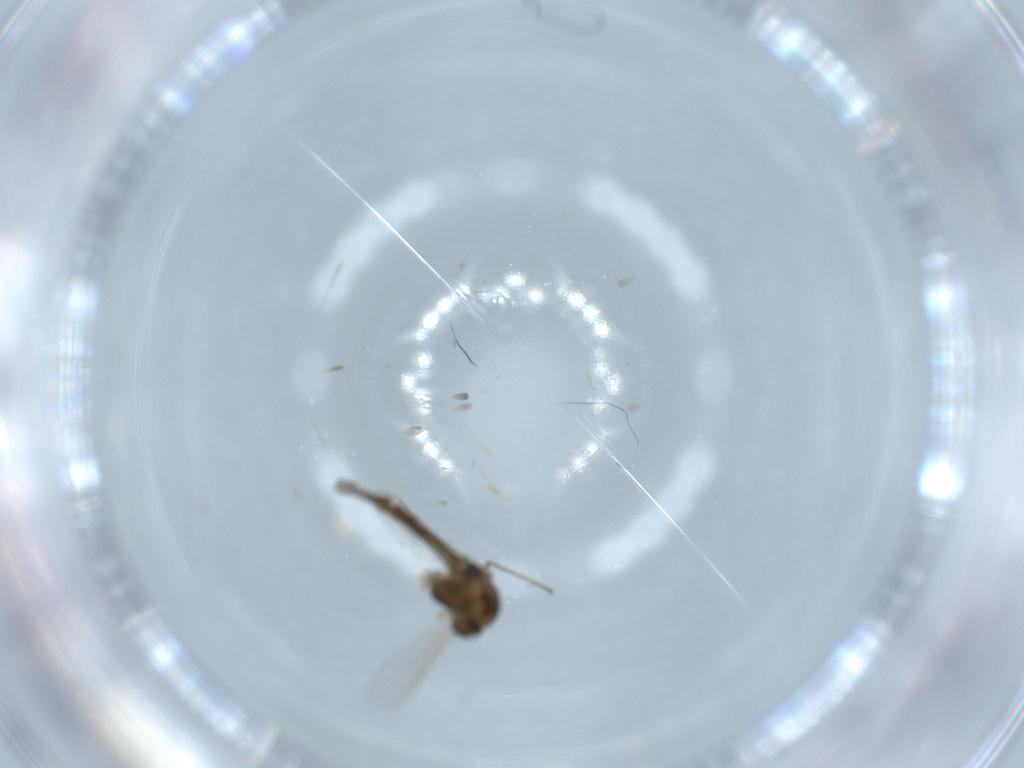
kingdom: Animalia
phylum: Arthropoda
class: Insecta
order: Diptera
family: Chironomidae
